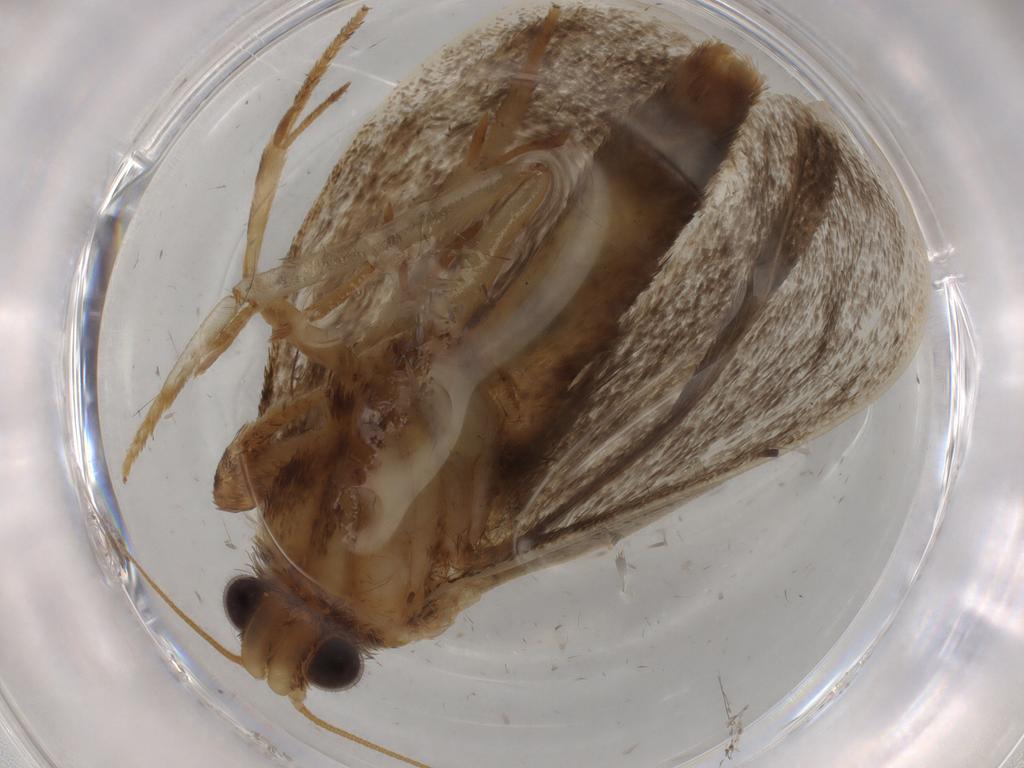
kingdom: Animalia
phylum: Arthropoda
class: Insecta
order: Lepidoptera
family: Tineidae
